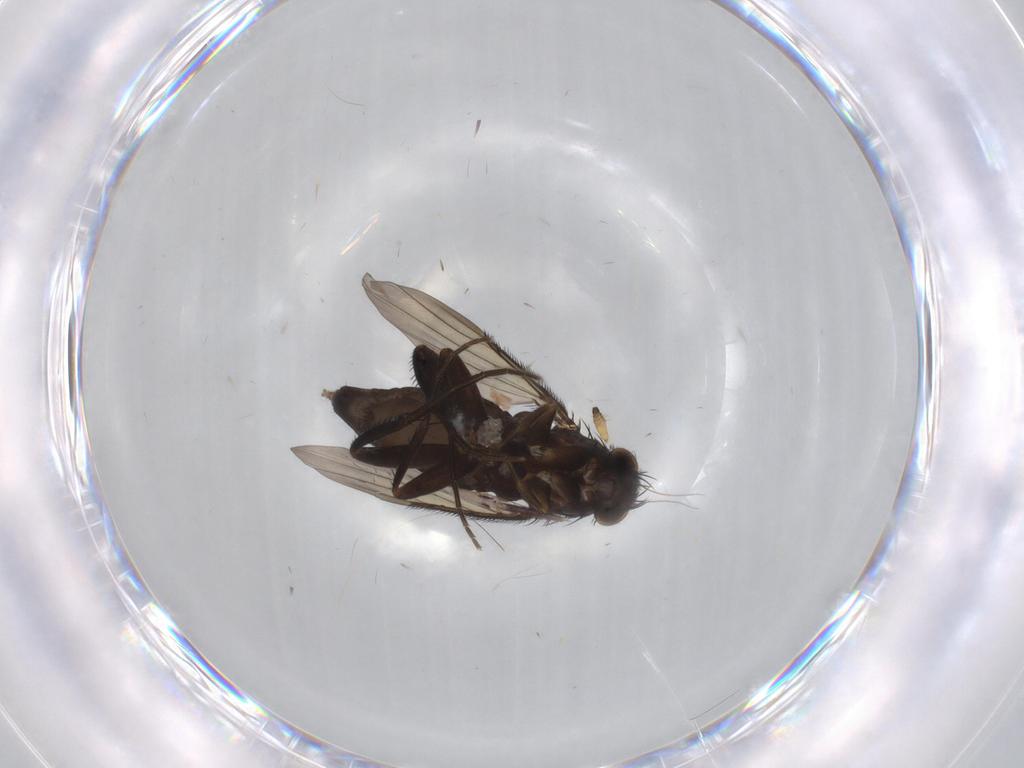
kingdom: Animalia
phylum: Arthropoda
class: Insecta
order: Diptera
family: Phoridae
